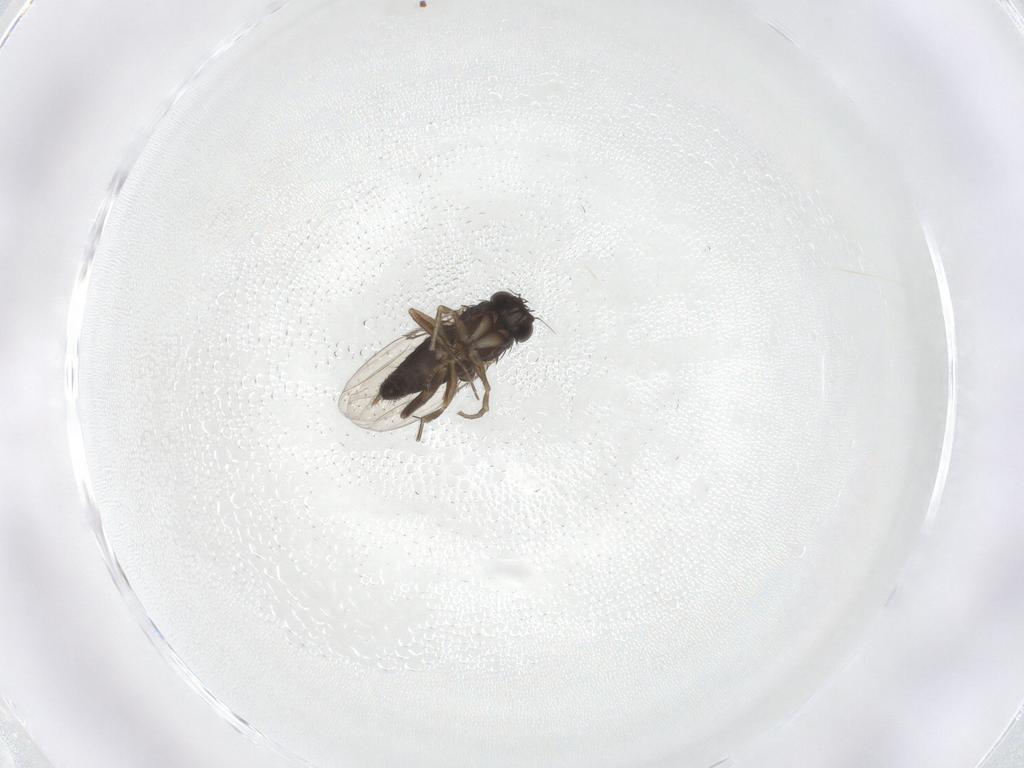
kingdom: Animalia
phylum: Arthropoda
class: Insecta
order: Diptera
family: Phoridae
